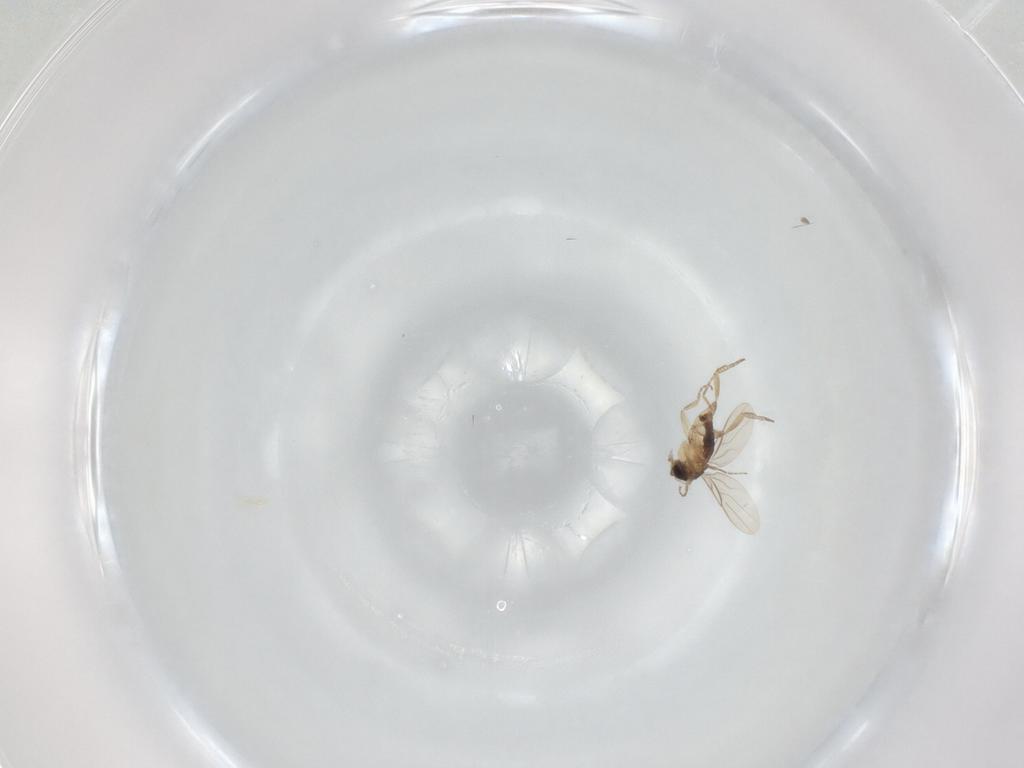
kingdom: Animalia
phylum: Arthropoda
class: Insecta
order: Diptera
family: Phoridae
